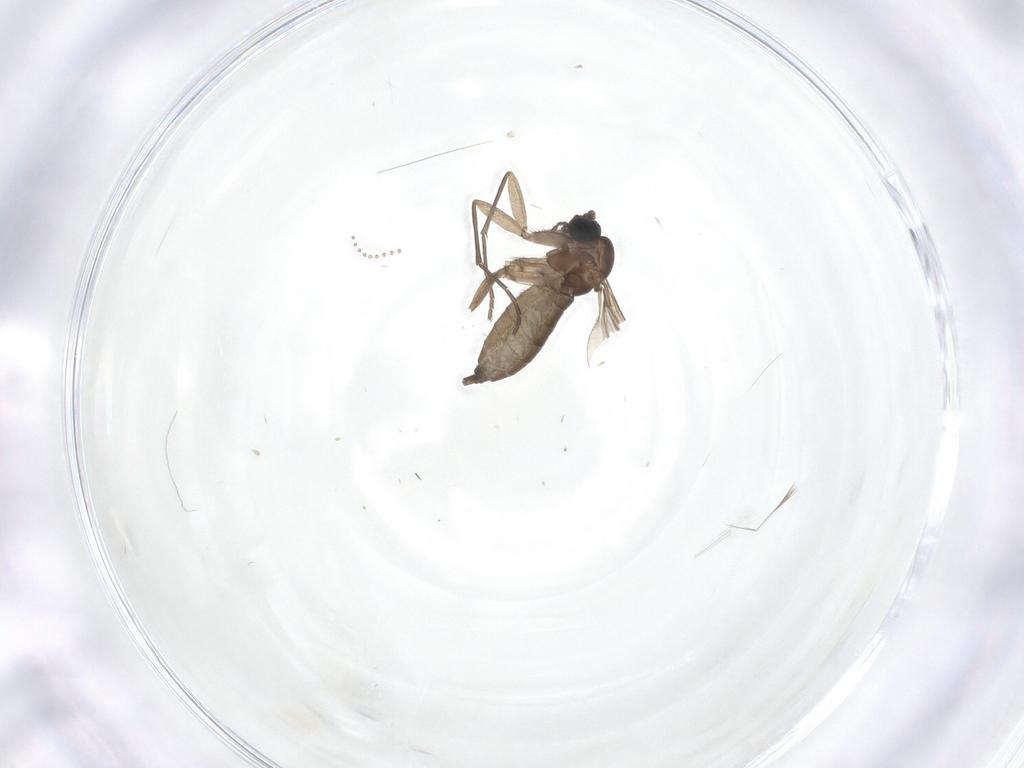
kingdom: Animalia
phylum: Arthropoda
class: Insecta
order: Diptera
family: Sciaridae
